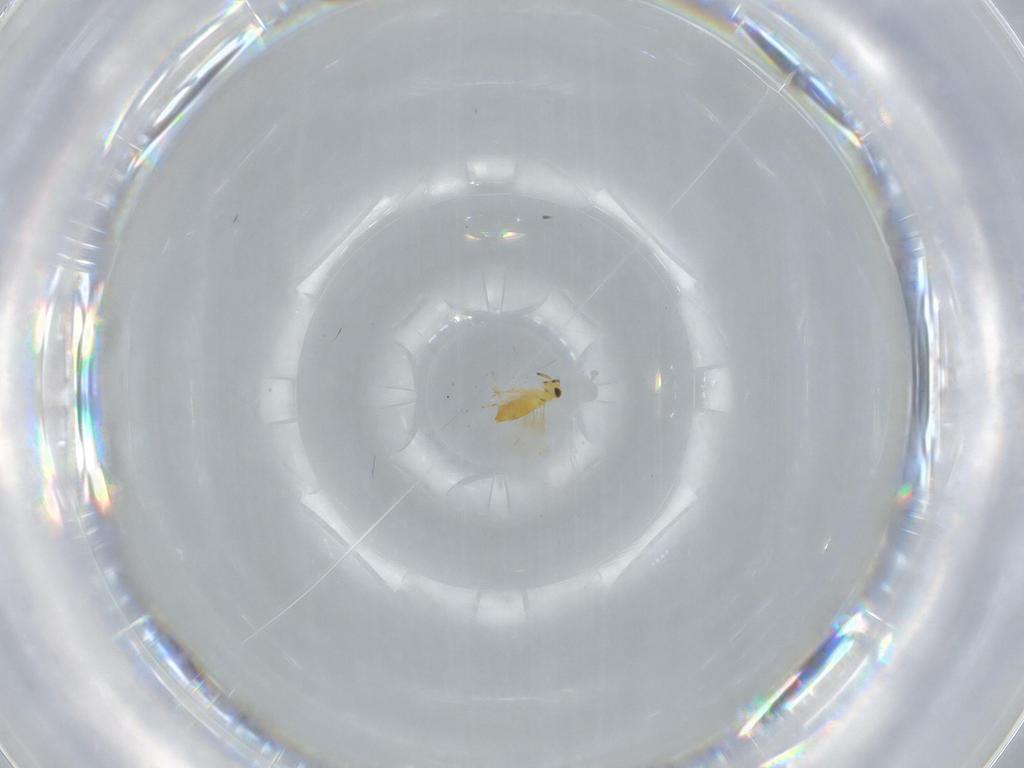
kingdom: Animalia
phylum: Arthropoda
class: Insecta
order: Hymenoptera
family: Signiphoridae
